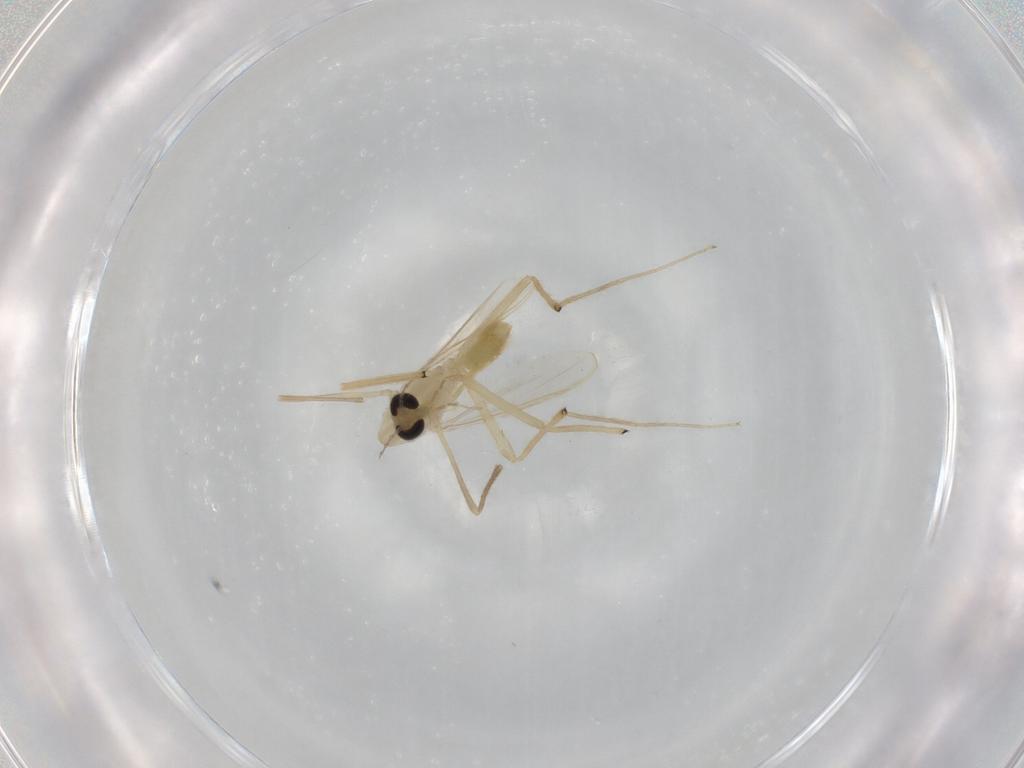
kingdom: Animalia
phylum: Arthropoda
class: Insecta
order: Diptera
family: Chironomidae
